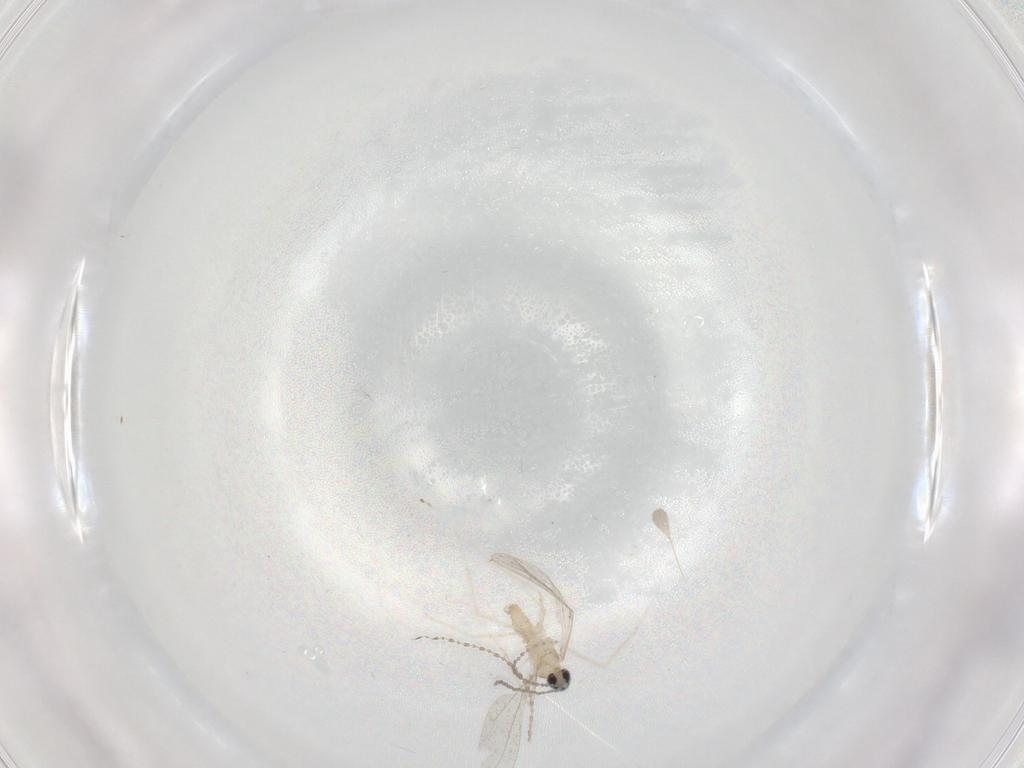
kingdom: Animalia
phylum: Arthropoda
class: Insecta
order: Diptera
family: Cecidomyiidae
